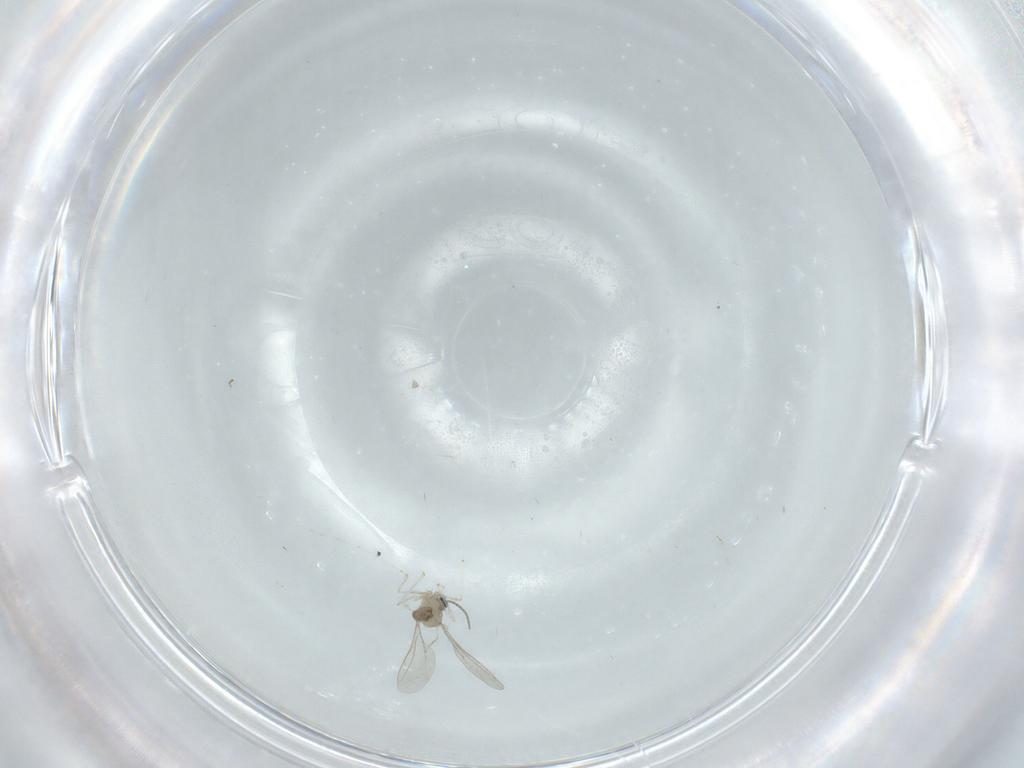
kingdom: Animalia
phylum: Arthropoda
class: Insecta
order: Diptera
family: Cecidomyiidae
